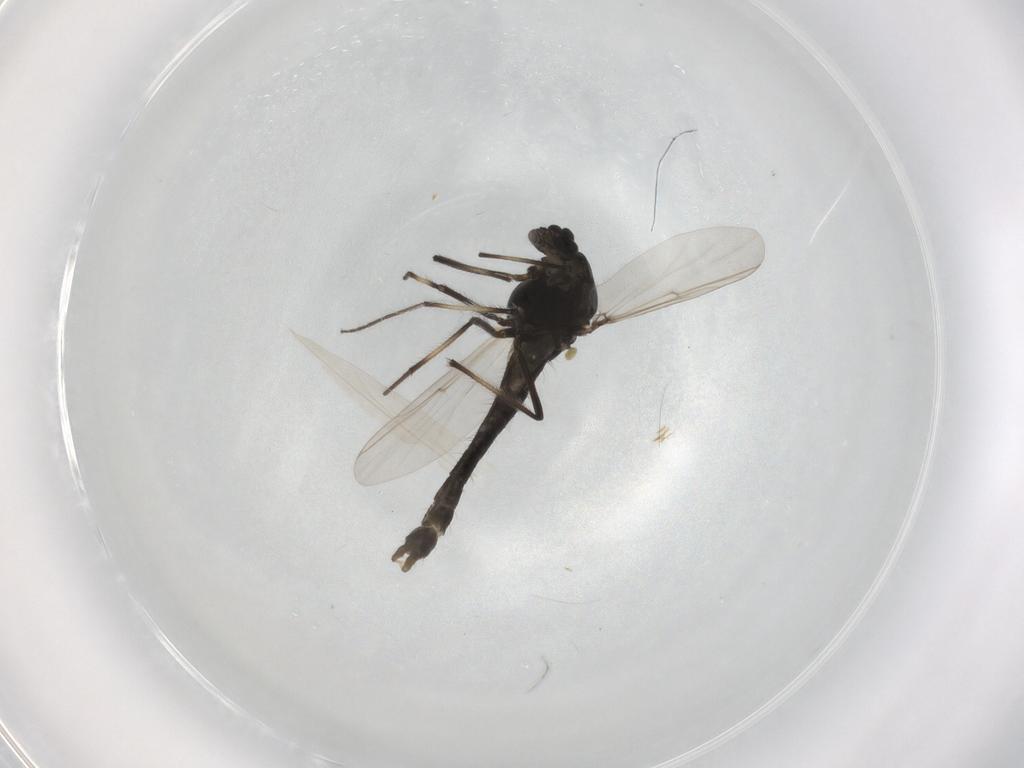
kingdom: Animalia
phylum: Arthropoda
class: Insecta
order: Diptera
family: Chironomidae
